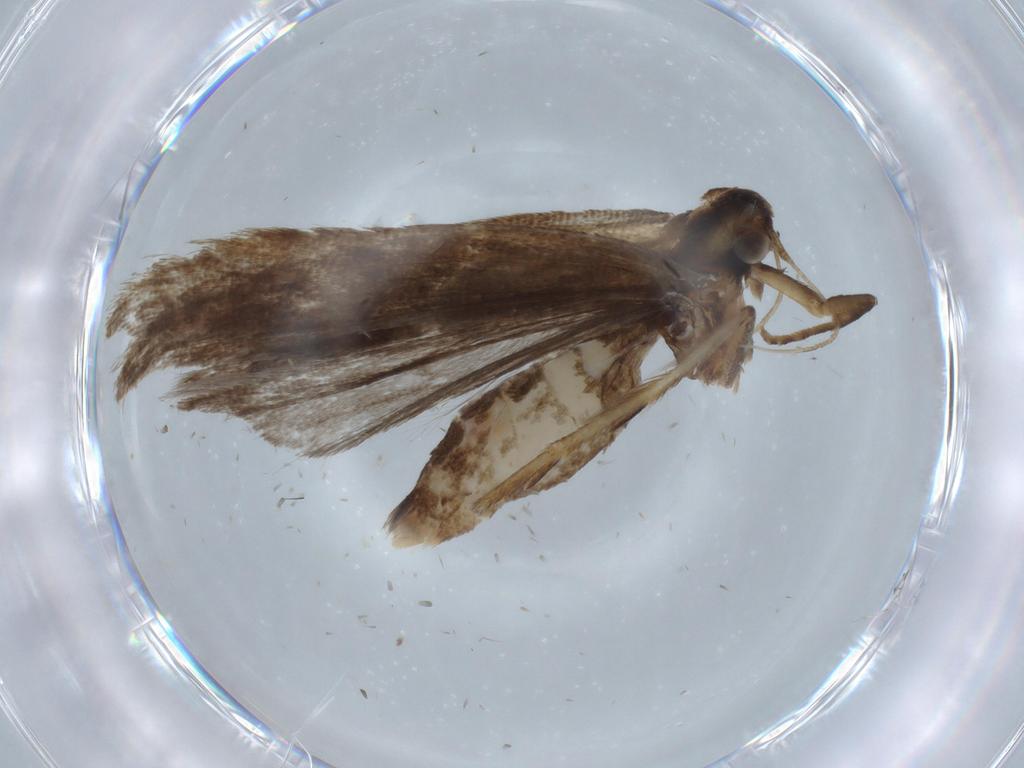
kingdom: Animalia
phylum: Arthropoda
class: Insecta
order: Lepidoptera
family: Gelechiidae
